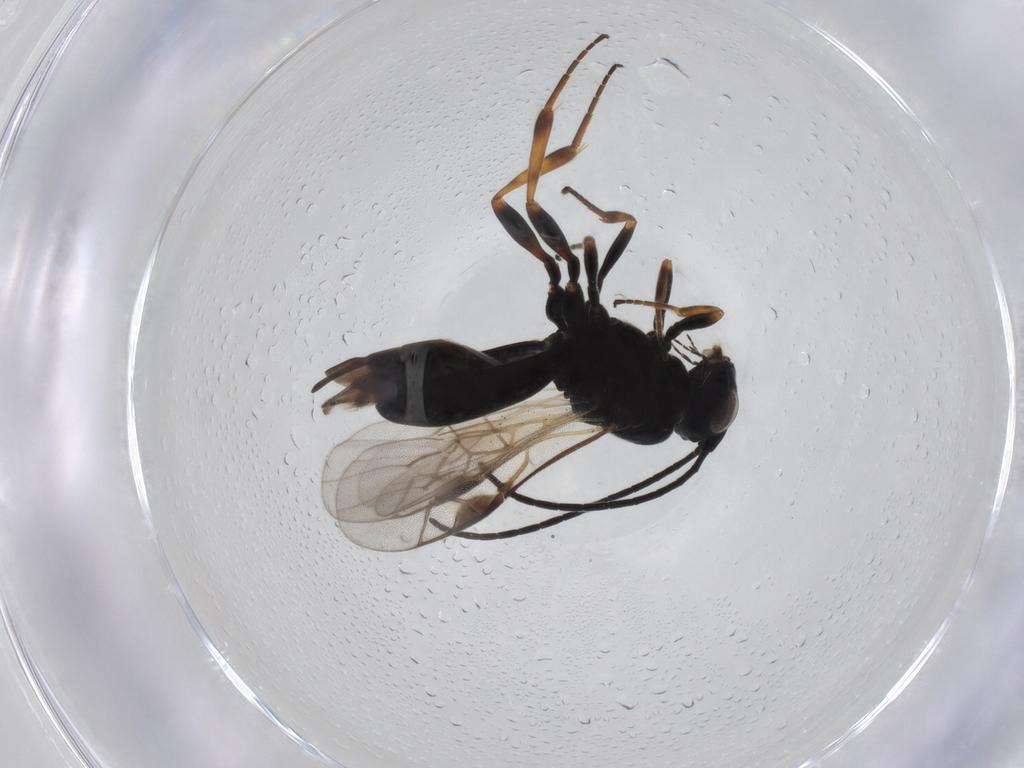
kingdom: Animalia
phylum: Arthropoda
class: Insecta
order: Hymenoptera
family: Braconidae
